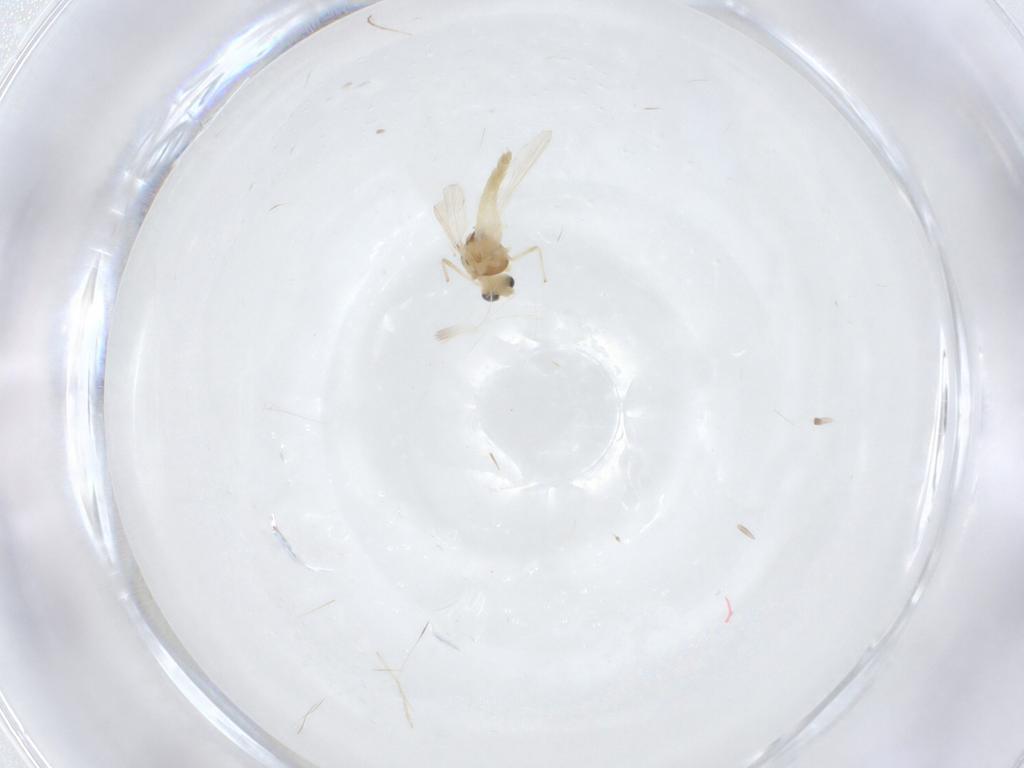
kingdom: Animalia
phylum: Arthropoda
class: Insecta
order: Diptera
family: Chironomidae
